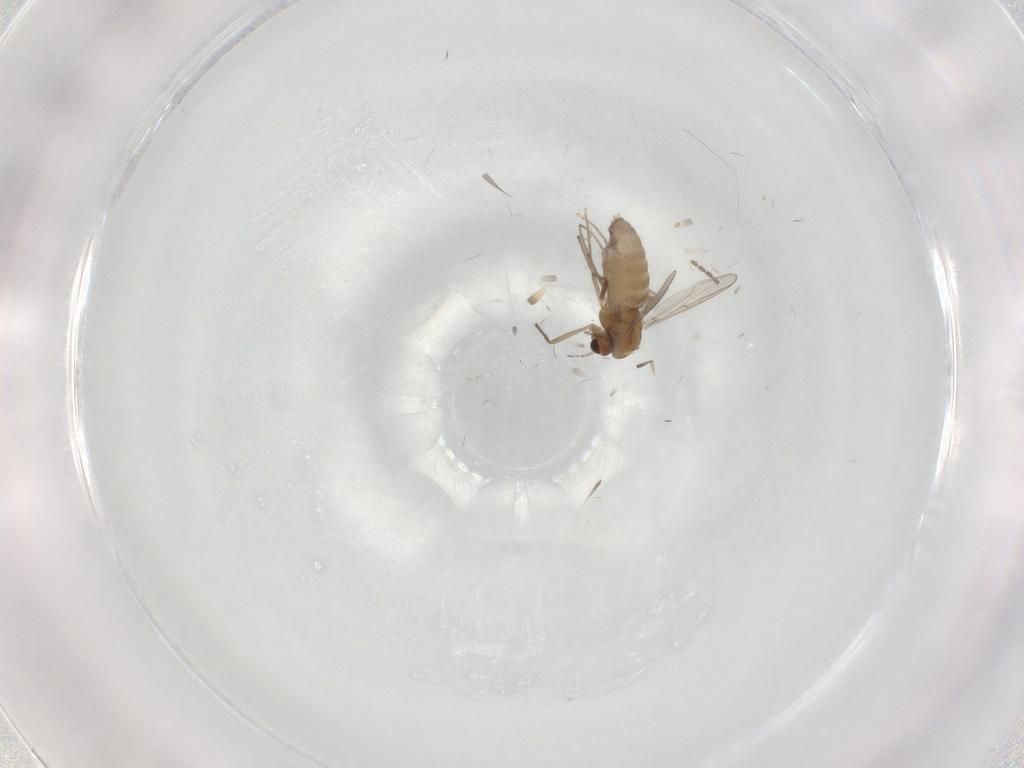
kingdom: Animalia
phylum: Arthropoda
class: Insecta
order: Diptera
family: Chironomidae
